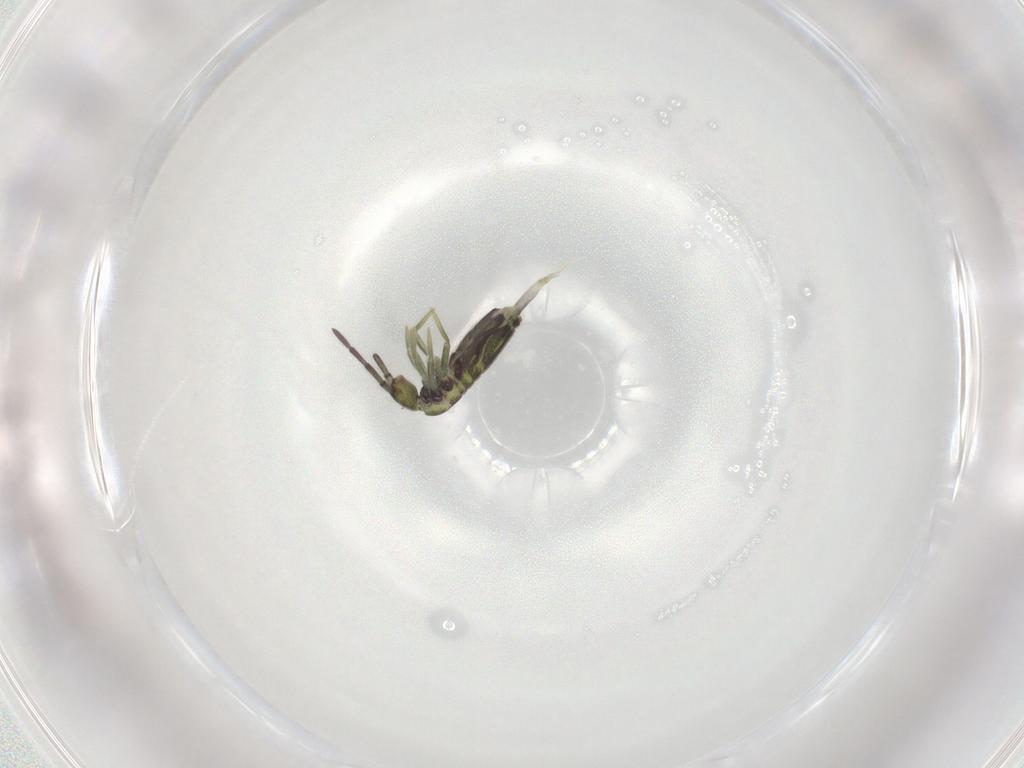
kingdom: Animalia
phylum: Arthropoda
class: Collembola
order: Entomobryomorpha
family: Entomobryidae
